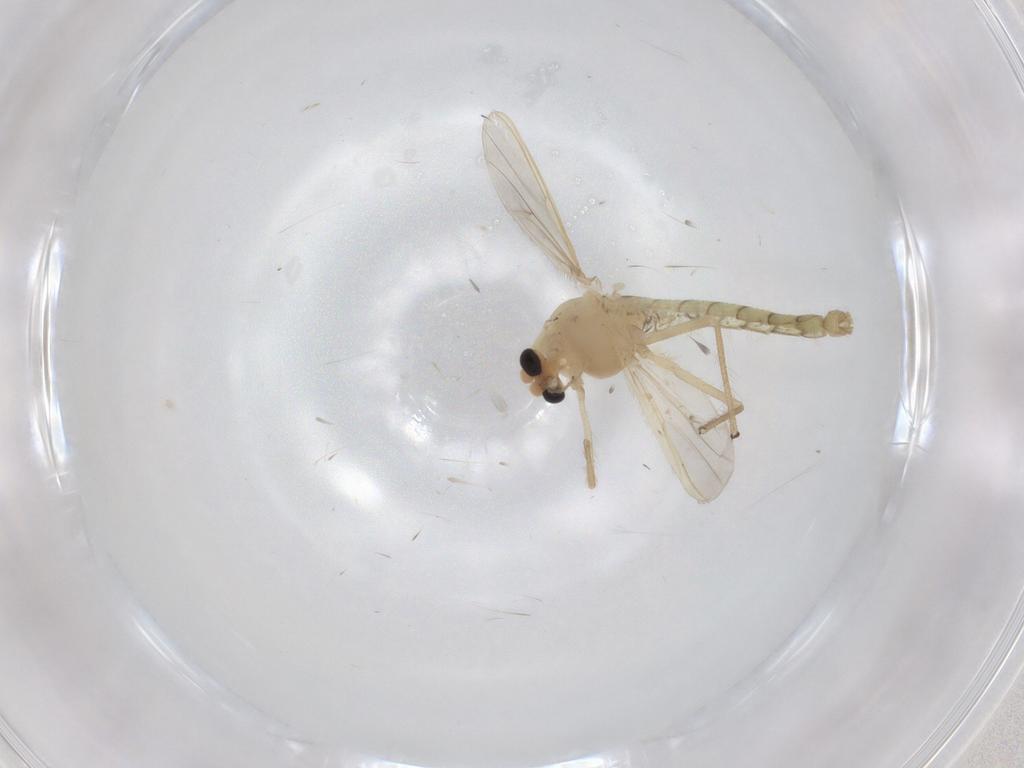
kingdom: Animalia
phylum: Arthropoda
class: Insecta
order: Diptera
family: Chironomidae
